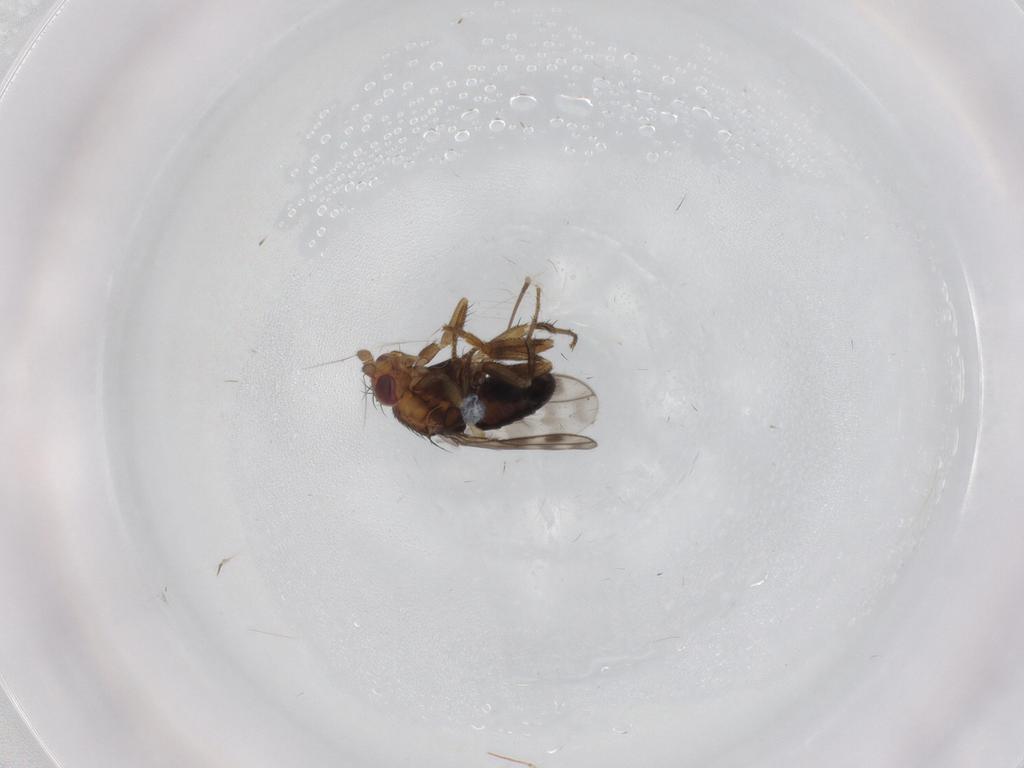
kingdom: Animalia
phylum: Arthropoda
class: Insecta
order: Diptera
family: Sphaeroceridae
